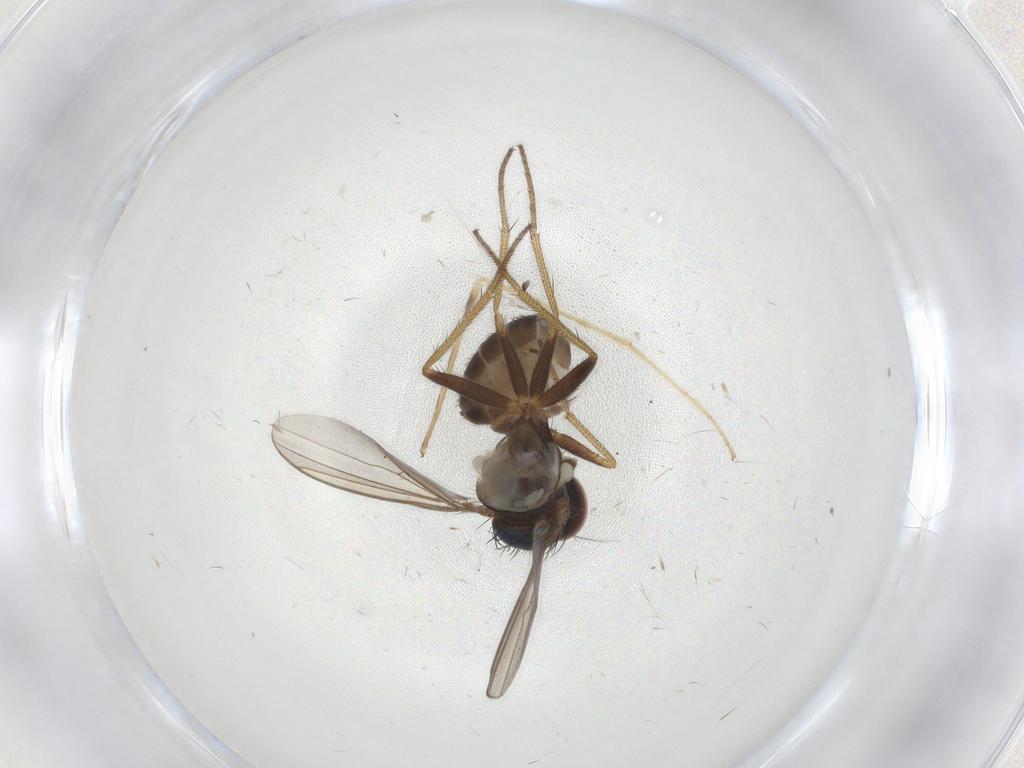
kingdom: Animalia
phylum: Arthropoda
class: Insecta
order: Diptera
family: Limoniidae
